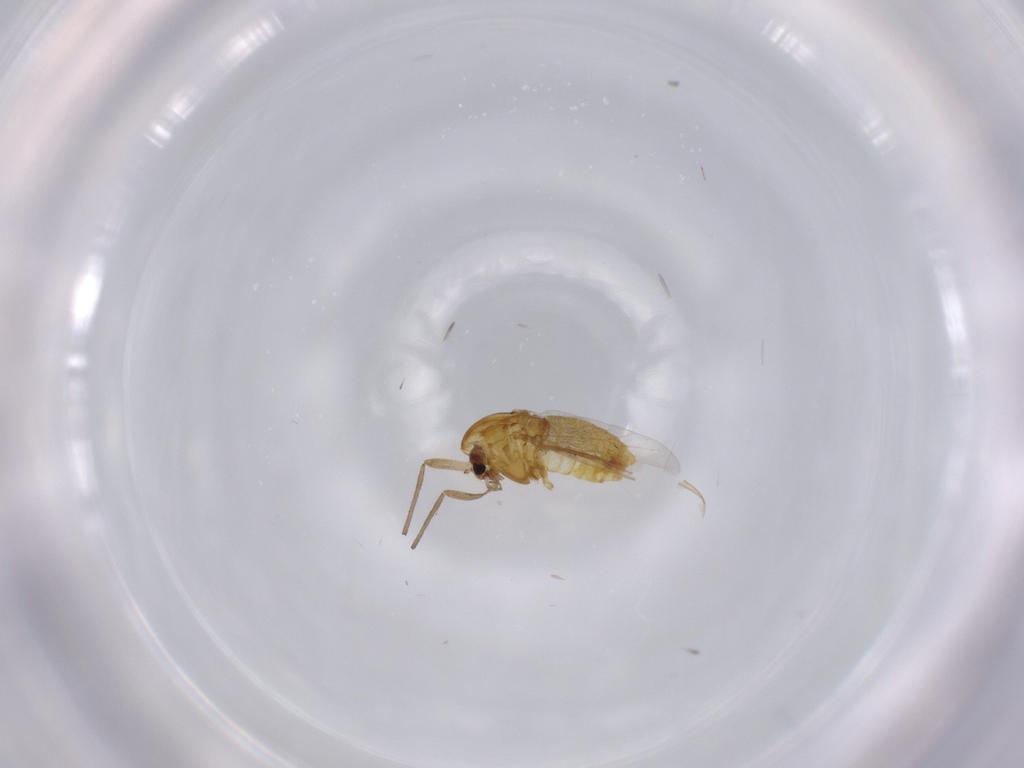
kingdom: Animalia
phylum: Arthropoda
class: Insecta
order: Diptera
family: Chironomidae
